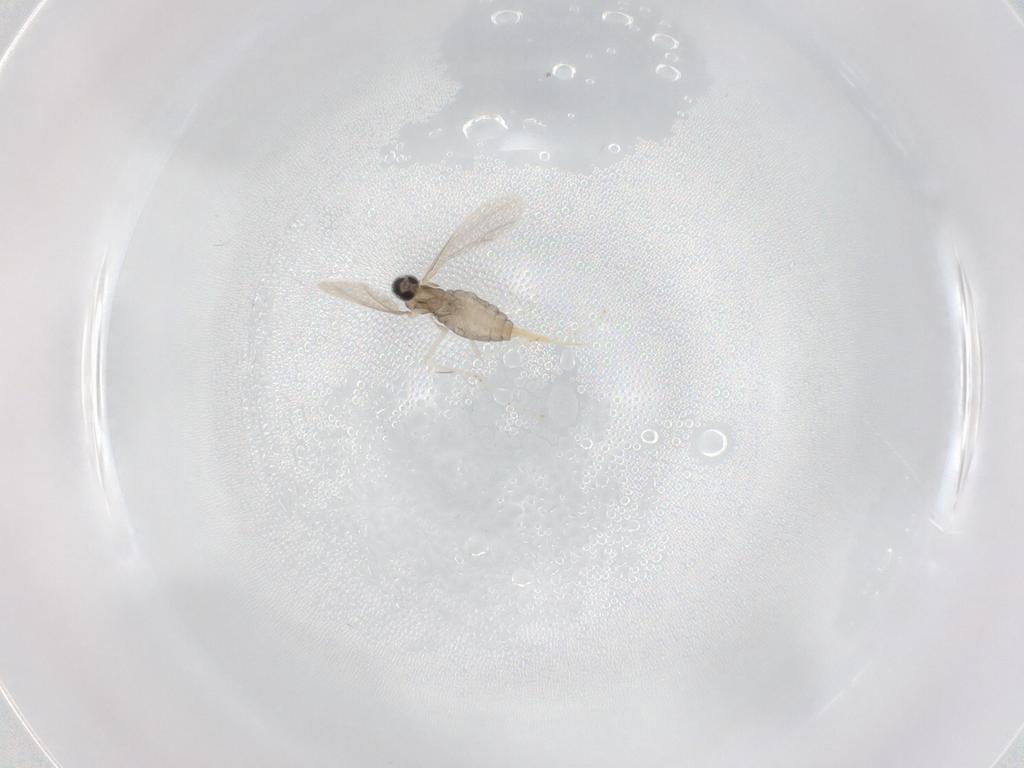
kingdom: Animalia
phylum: Arthropoda
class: Insecta
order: Diptera
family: Cecidomyiidae
